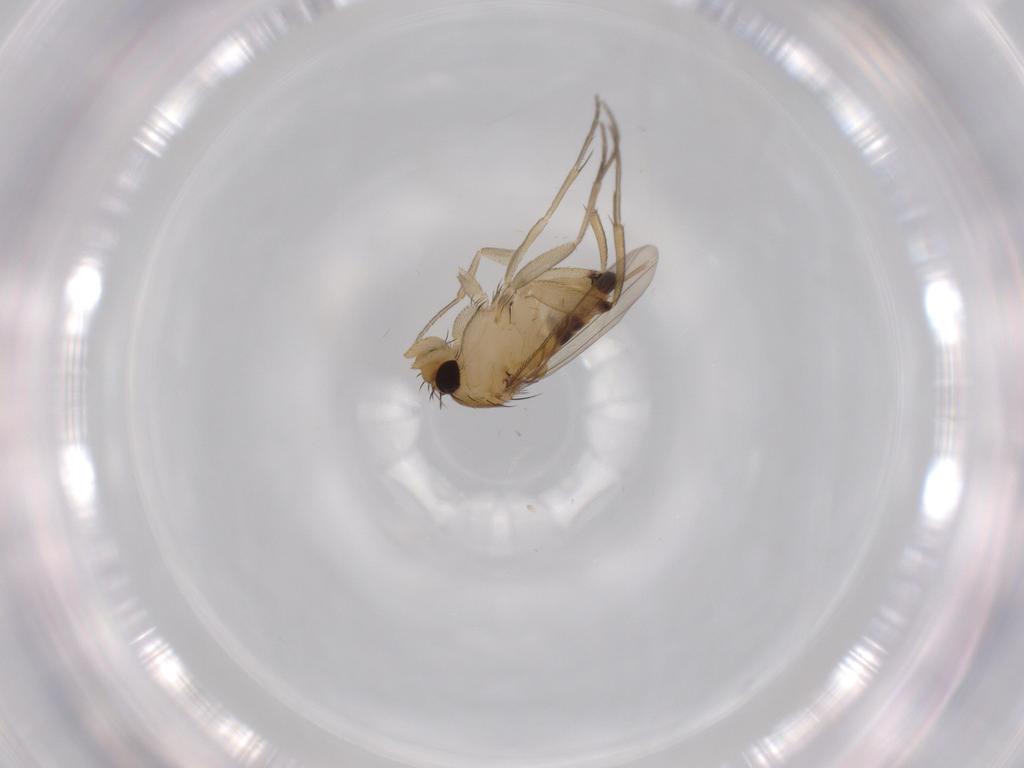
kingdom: Animalia
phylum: Arthropoda
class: Insecta
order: Diptera
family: Phoridae
